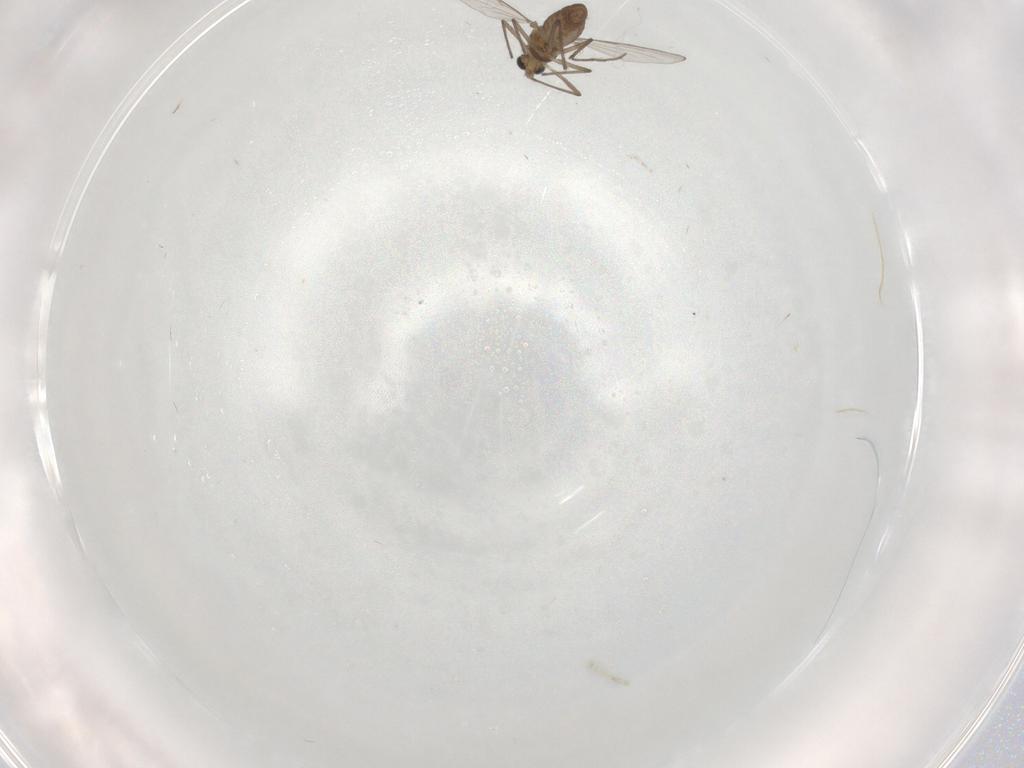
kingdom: Animalia
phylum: Arthropoda
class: Insecta
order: Diptera
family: Chironomidae
